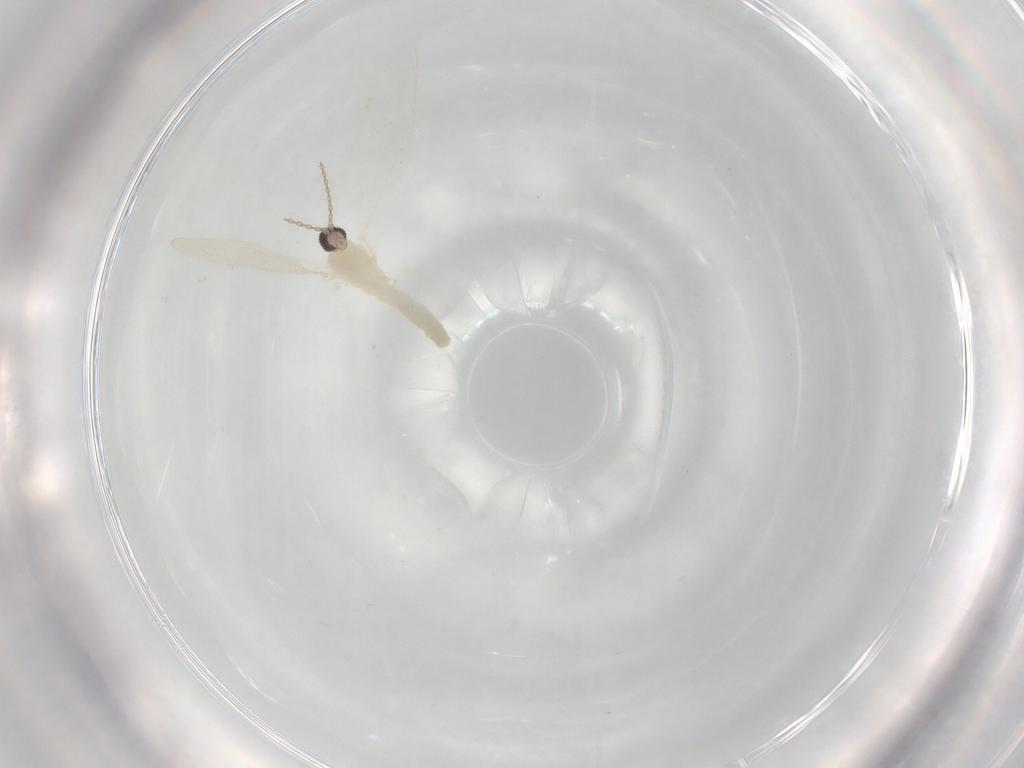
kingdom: Animalia
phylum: Arthropoda
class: Insecta
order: Diptera
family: Cecidomyiidae
